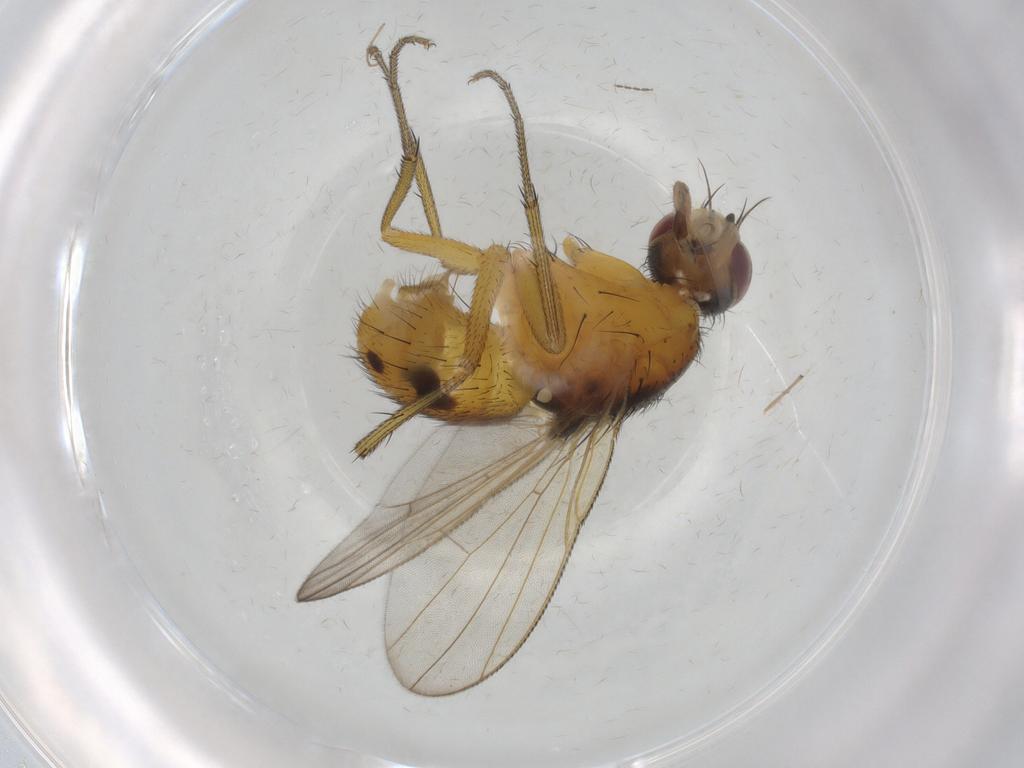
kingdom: Animalia
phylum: Arthropoda
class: Insecta
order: Diptera
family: Muscidae
